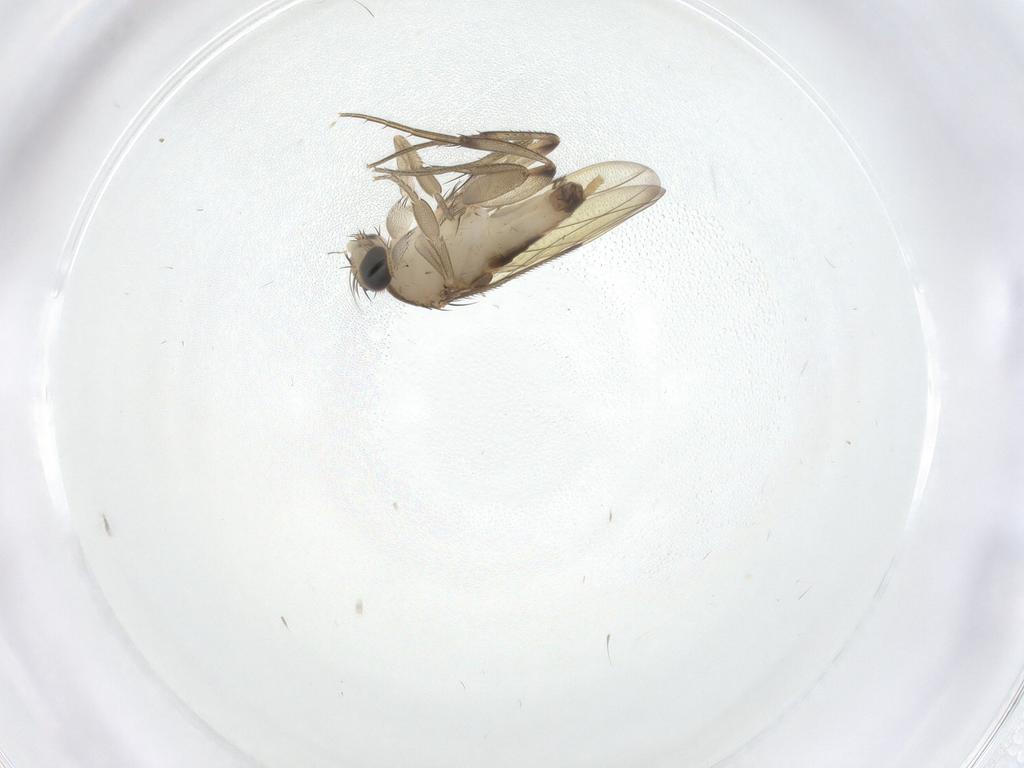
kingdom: Animalia
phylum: Arthropoda
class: Insecta
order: Diptera
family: Phoridae
